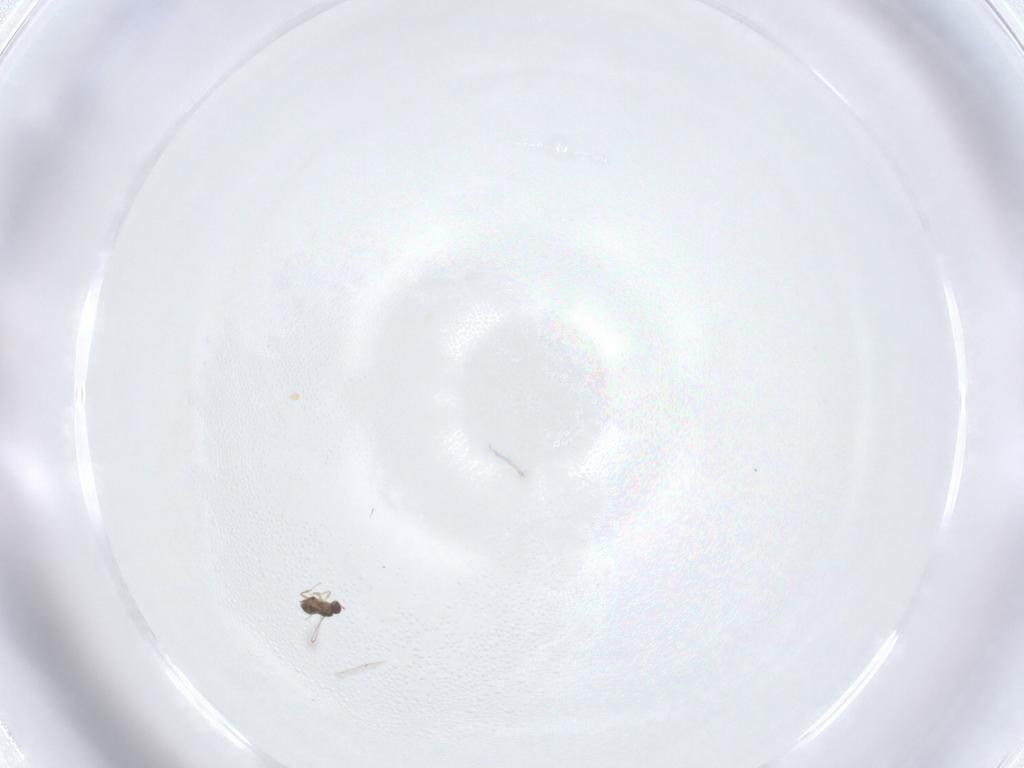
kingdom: Animalia
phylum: Arthropoda
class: Insecta
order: Hymenoptera
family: Mymaridae
